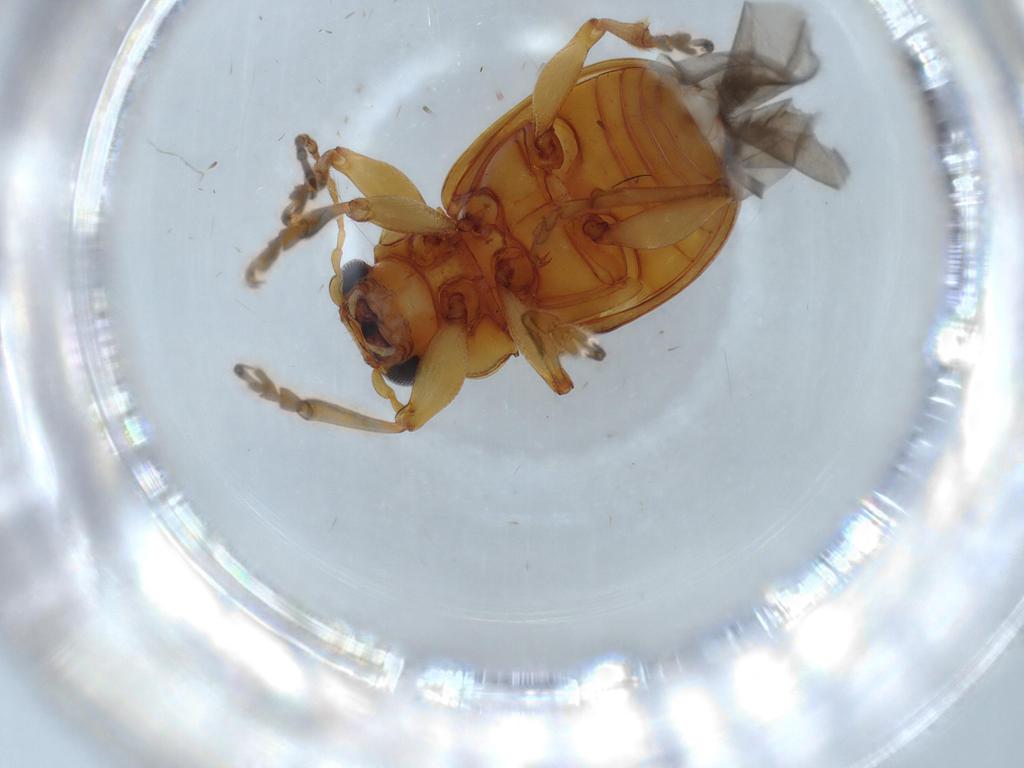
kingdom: Animalia
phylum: Arthropoda
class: Insecta
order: Coleoptera
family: Chrysomelidae
